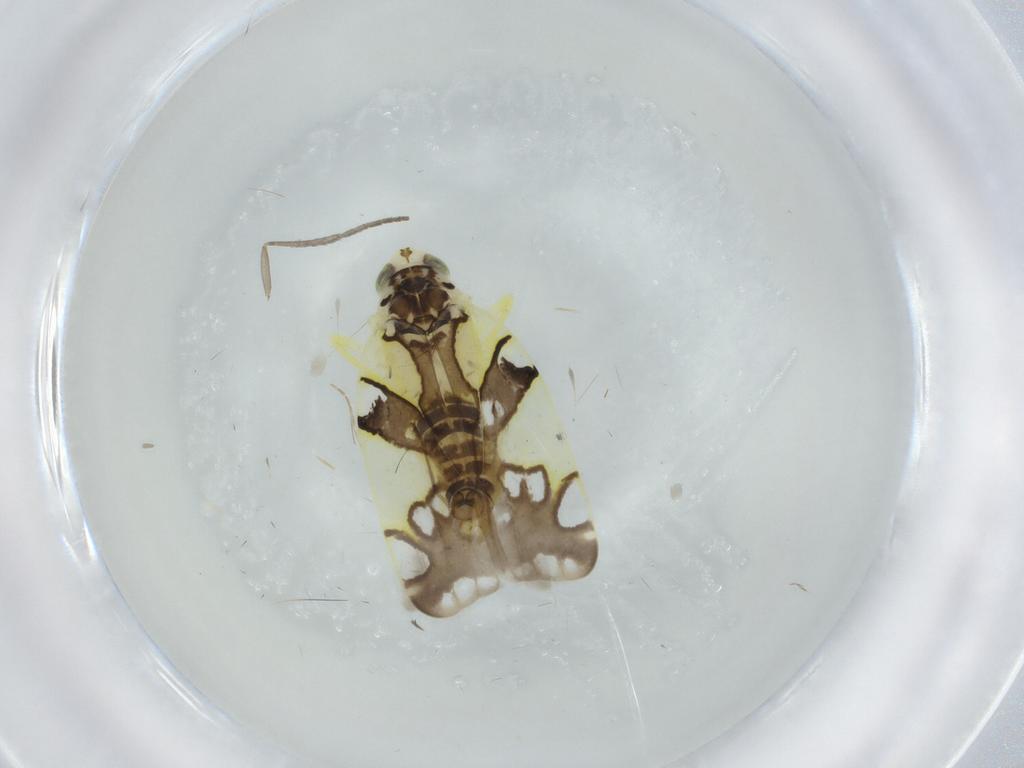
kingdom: Animalia
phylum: Arthropoda
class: Insecta
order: Hemiptera
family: Cicadellidae
